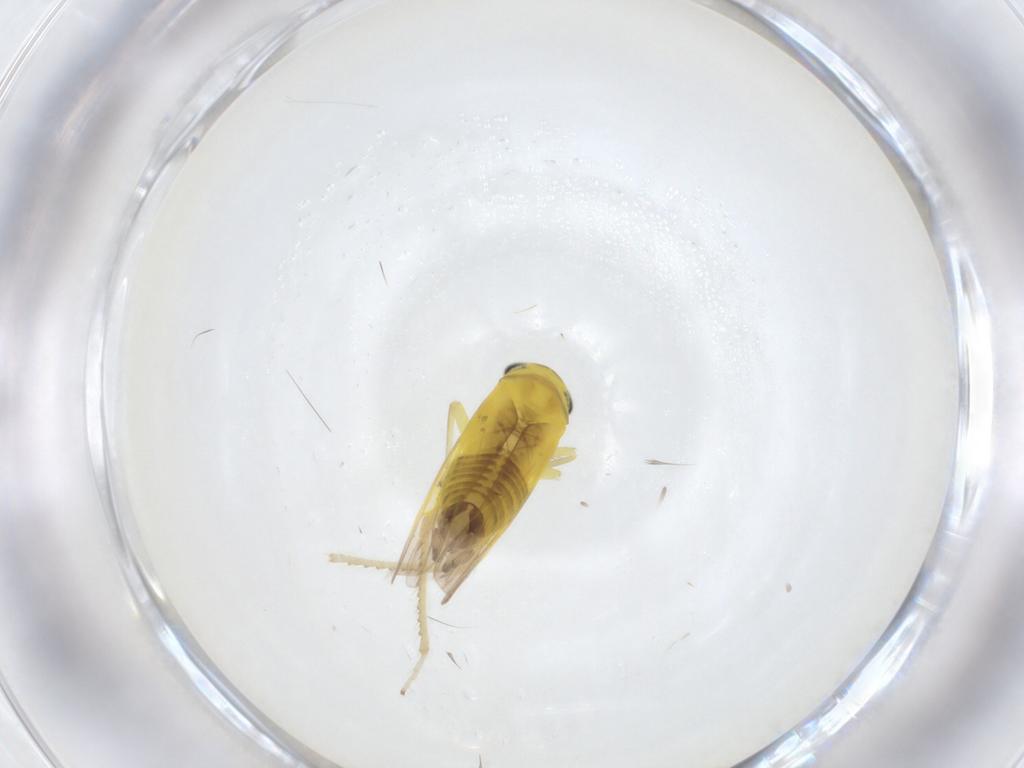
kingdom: Animalia
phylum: Arthropoda
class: Insecta
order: Hemiptera
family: Cicadellidae
